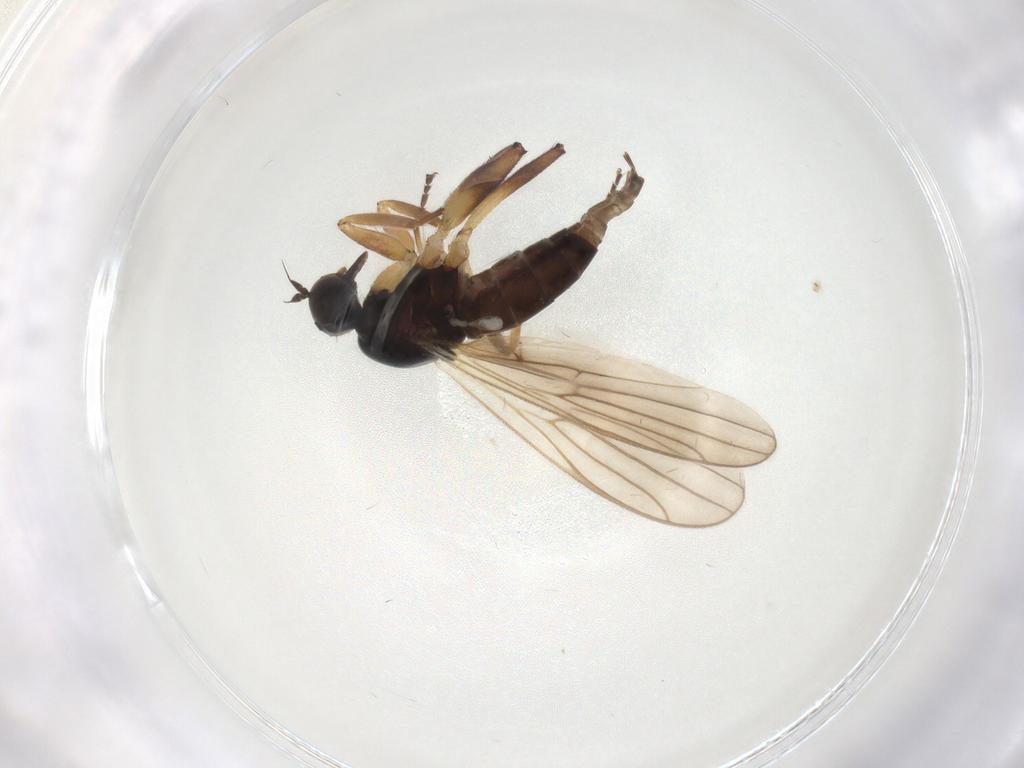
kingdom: Animalia
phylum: Arthropoda
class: Insecta
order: Diptera
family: Hybotidae
